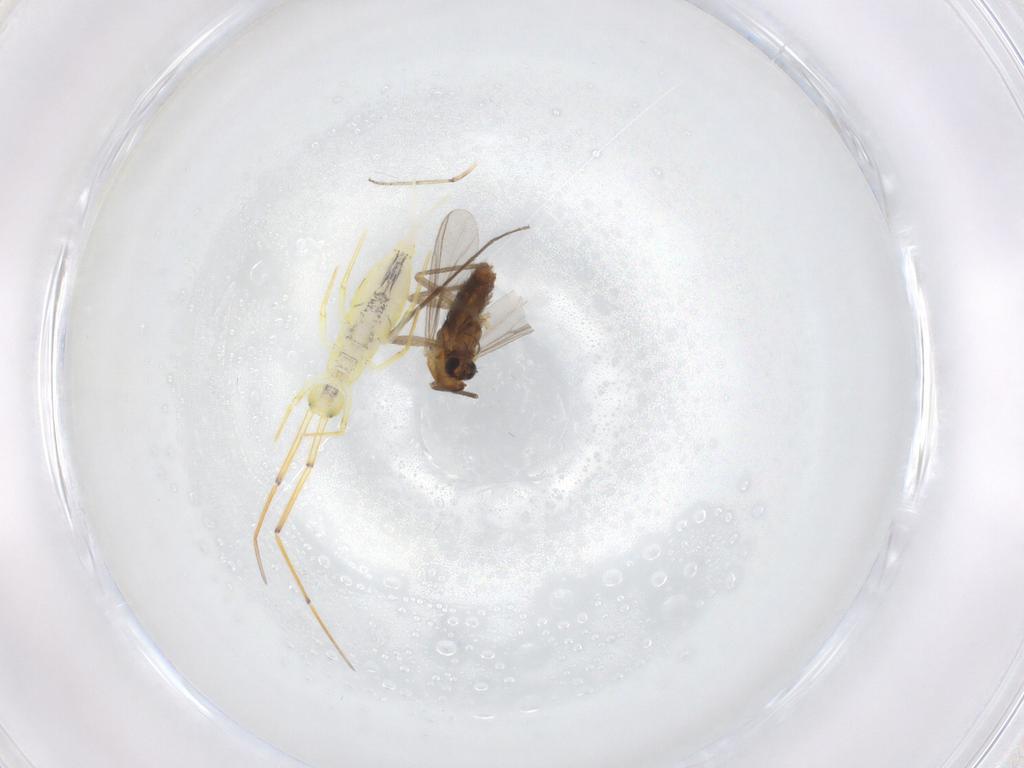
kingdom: Animalia
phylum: Arthropoda
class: Insecta
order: Diptera
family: Chironomidae
